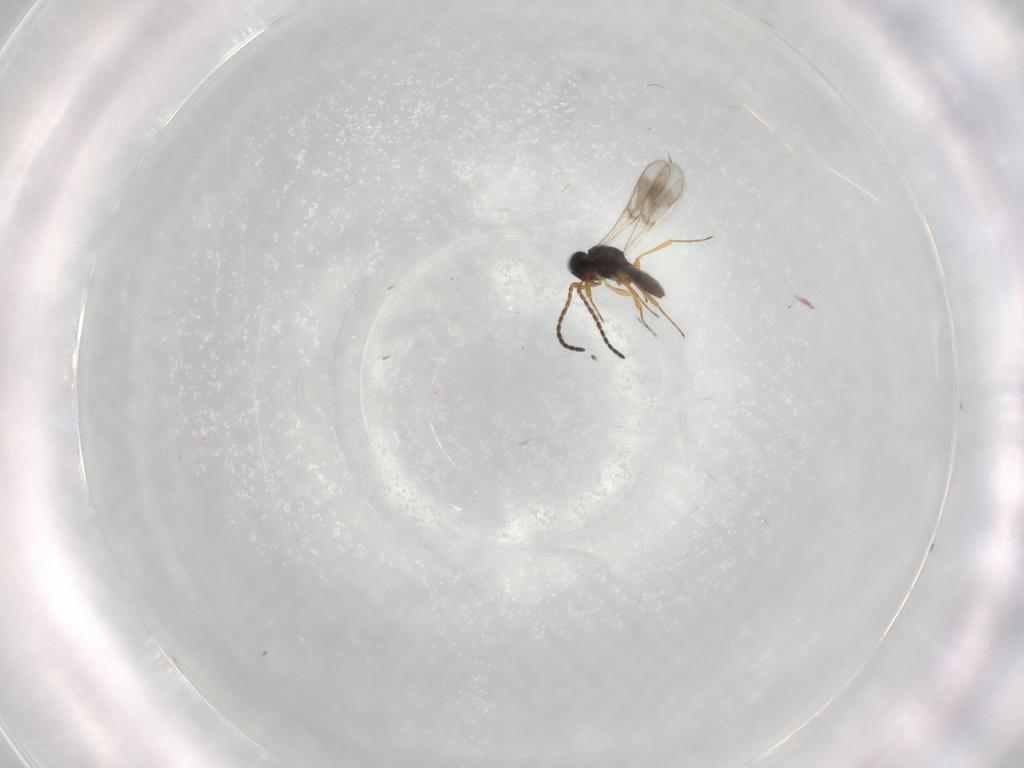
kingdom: Animalia
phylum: Arthropoda
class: Insecta
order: Hymenoptera
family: Scelionidae
